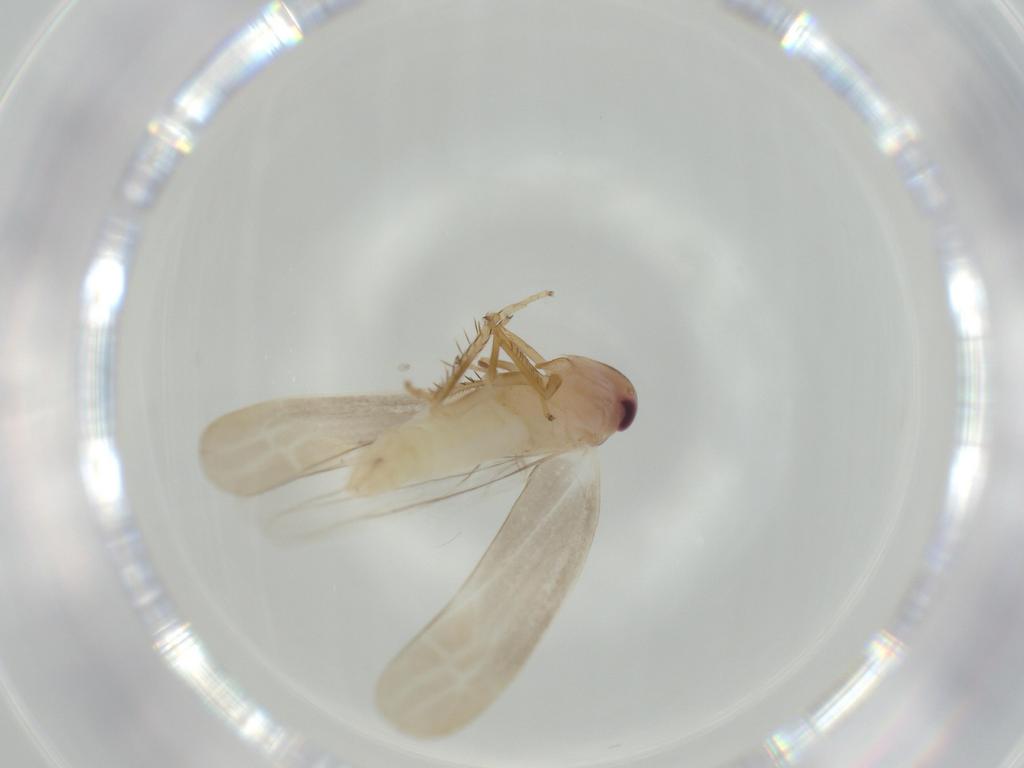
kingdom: Animalia
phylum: Arthropoda
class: Insecta
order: Hemiptera
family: Cicadellidae
